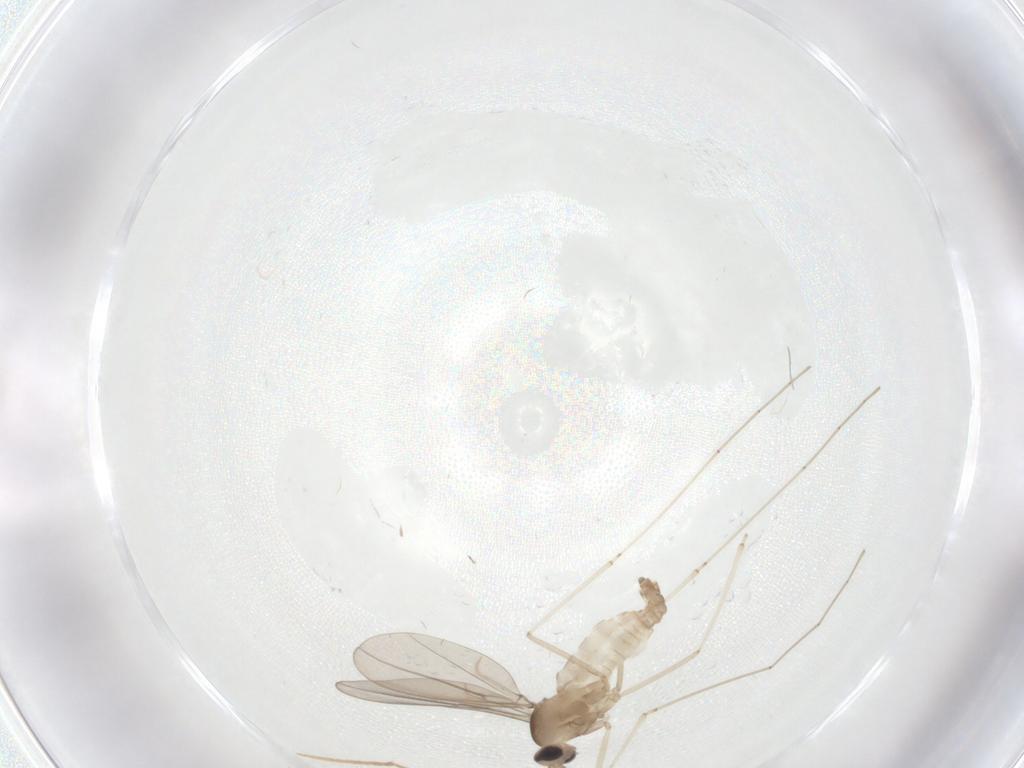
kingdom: Animalia
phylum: Arthropoda
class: Insecta
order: Diptera
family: Cecidomyiidae
